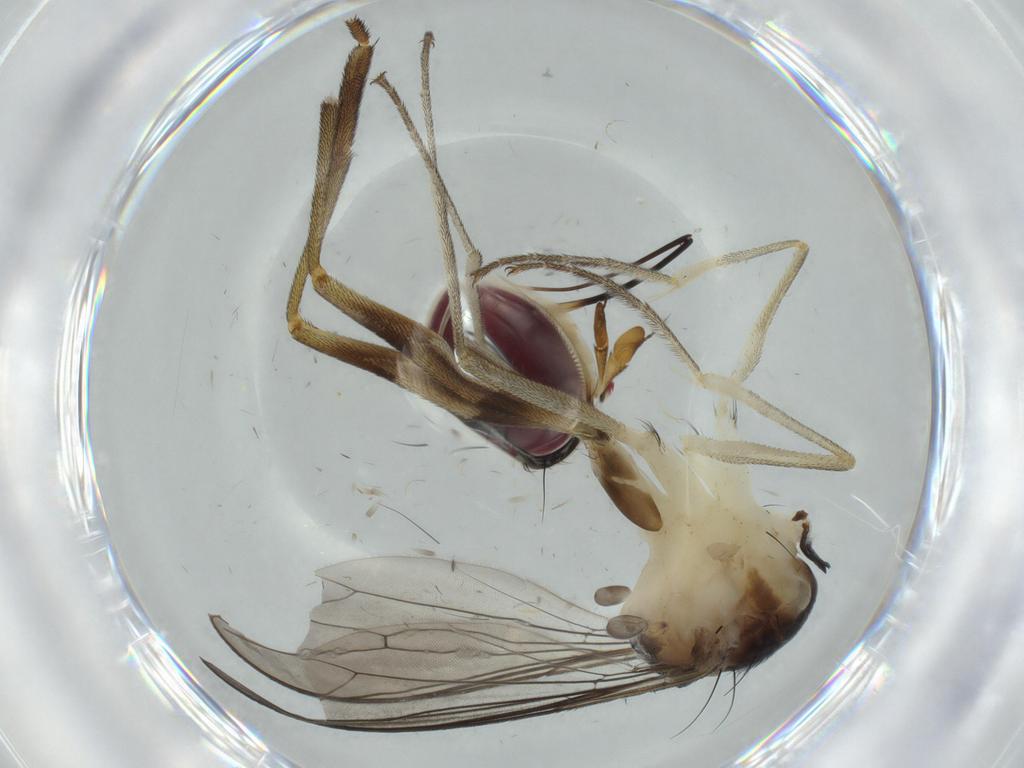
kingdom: Animalia
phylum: Arthropoda
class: Insecta
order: Diptera
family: Conopidae
